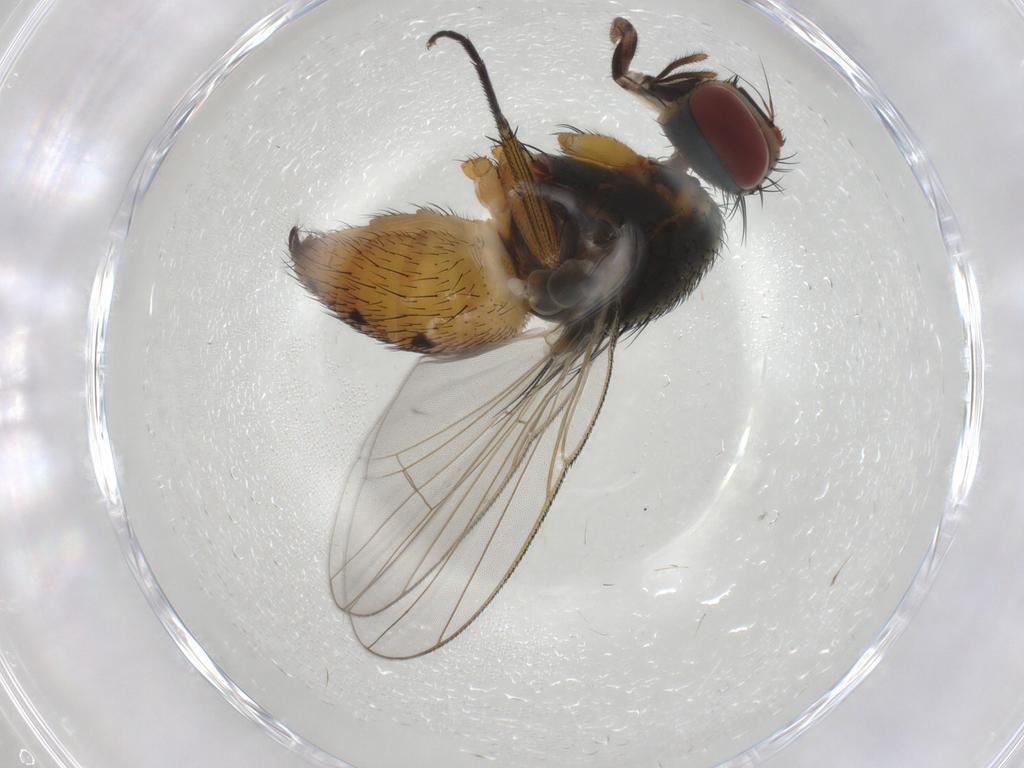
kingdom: Animalia
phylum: Arthropoda
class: Insecta
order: Diptera
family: Muscidae
